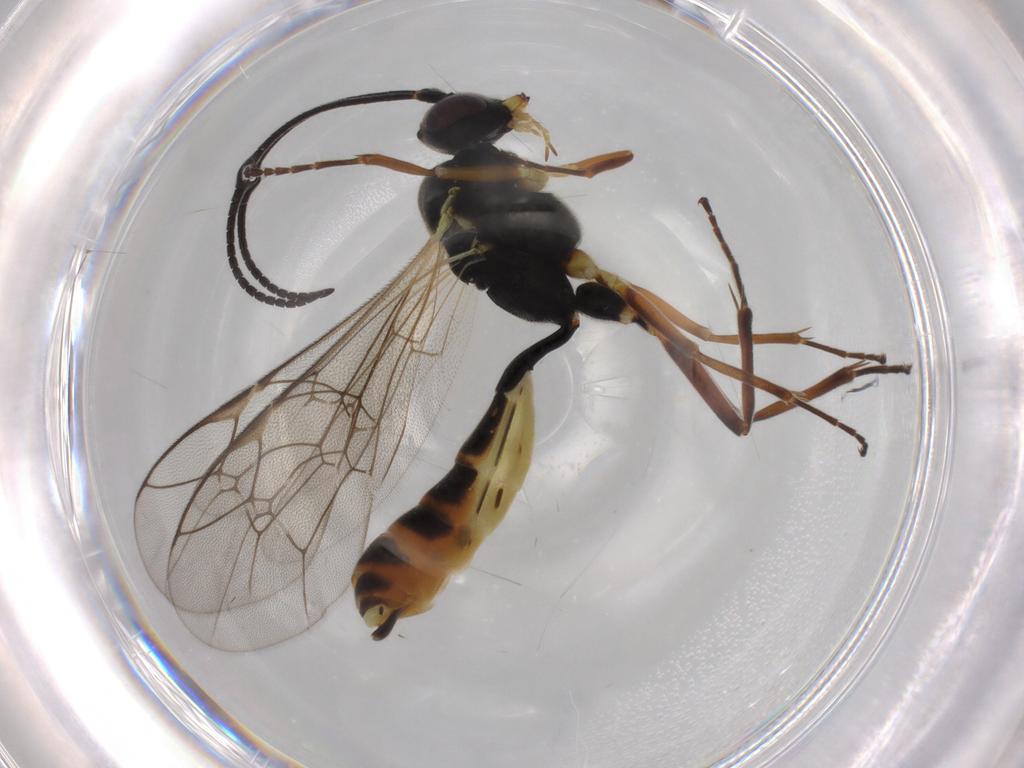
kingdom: Animalia
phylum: Arthropoda
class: Insecta
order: Hymenoptera
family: Ichneumonidae
